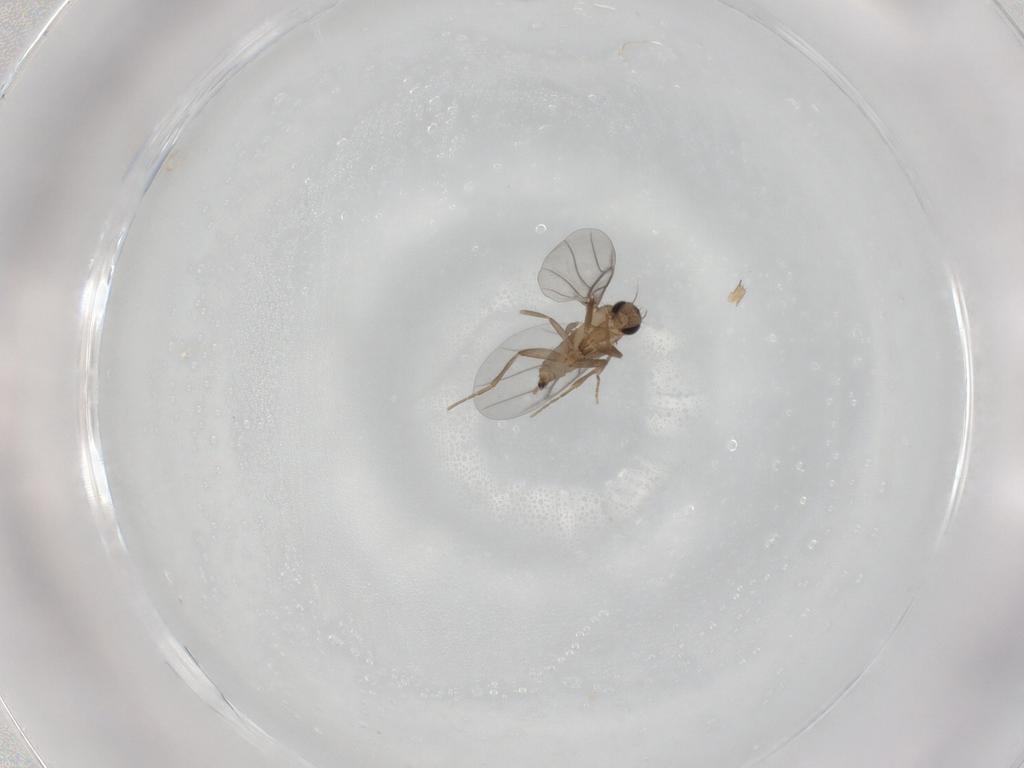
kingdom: Animalia
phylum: Arthropoda
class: Insecta
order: Diptera
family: Phoridae
